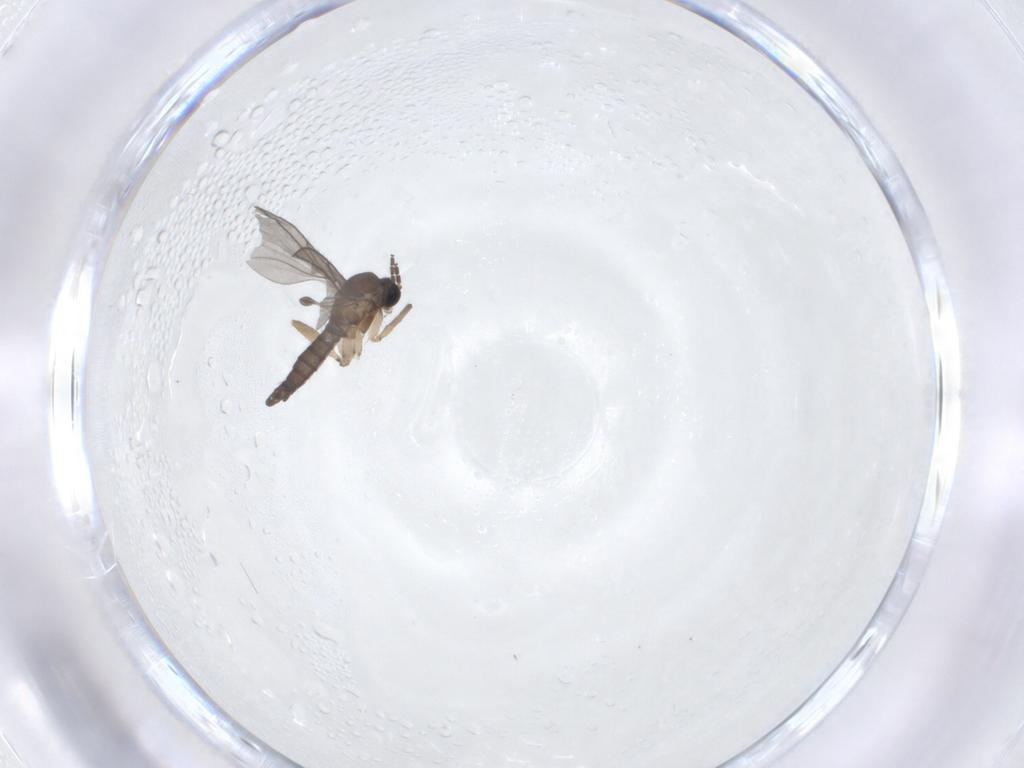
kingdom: Animalia
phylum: Arthropoda
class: Insecta
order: Diptera
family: Sciaridae
